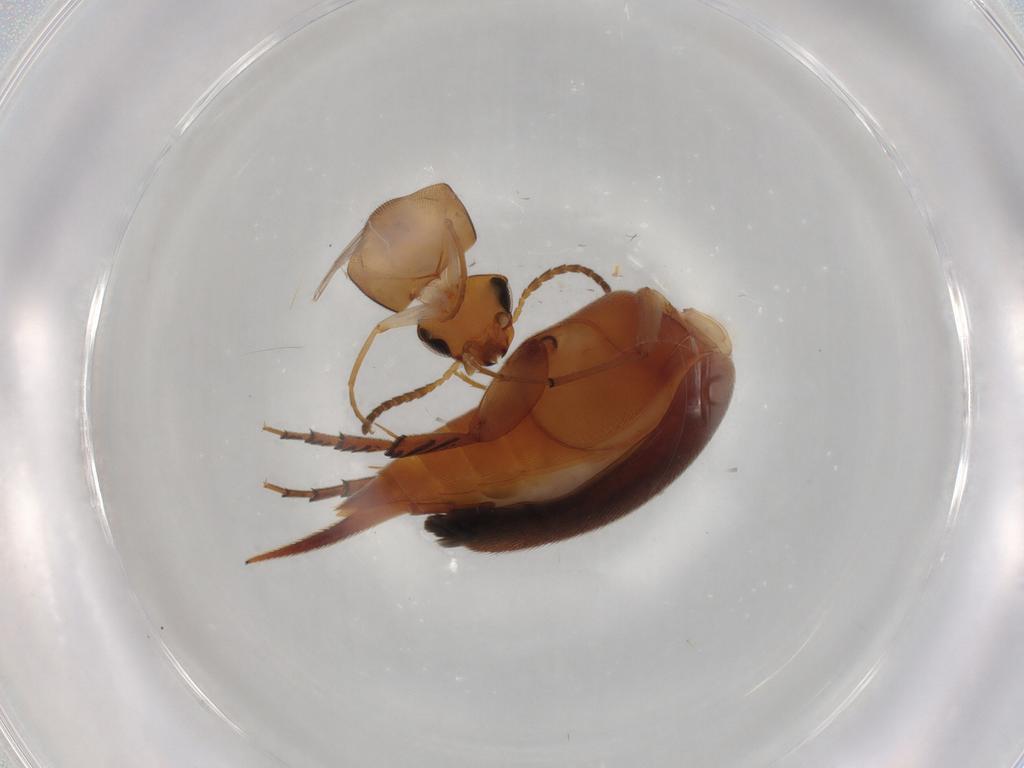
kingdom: Animalia
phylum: Arthropoda
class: Insecta
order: Coleoptera
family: Mordellidae
